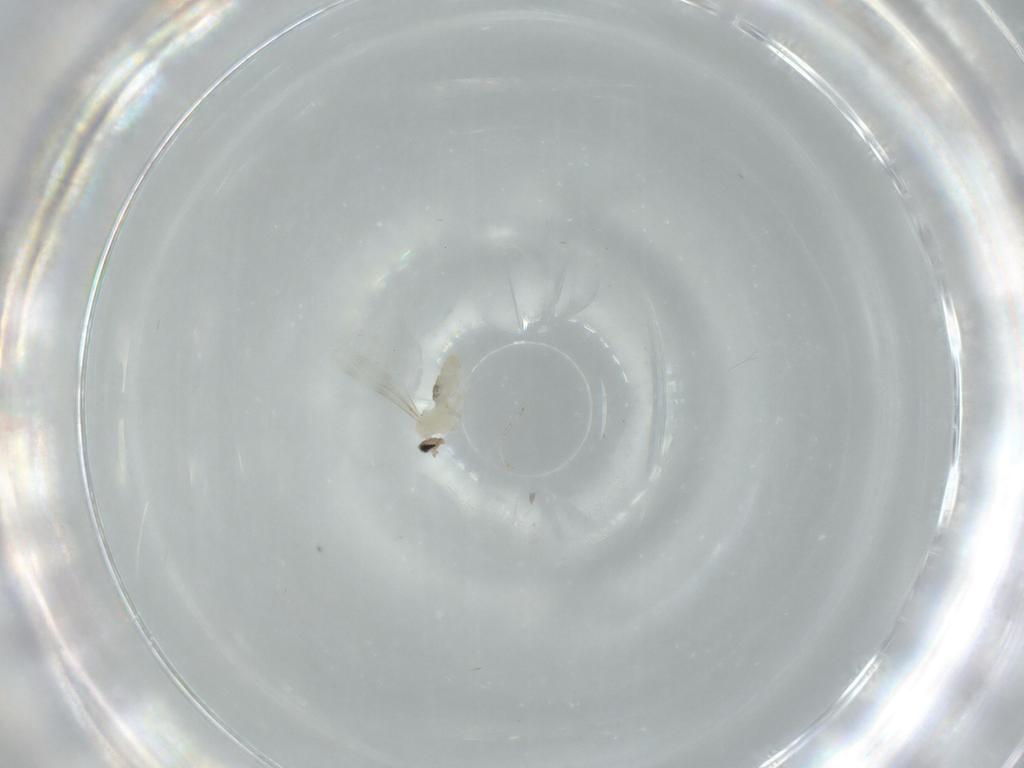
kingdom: Animalia
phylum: Arthropoda
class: Insecta
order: Diptera
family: Cecidomyiidae
